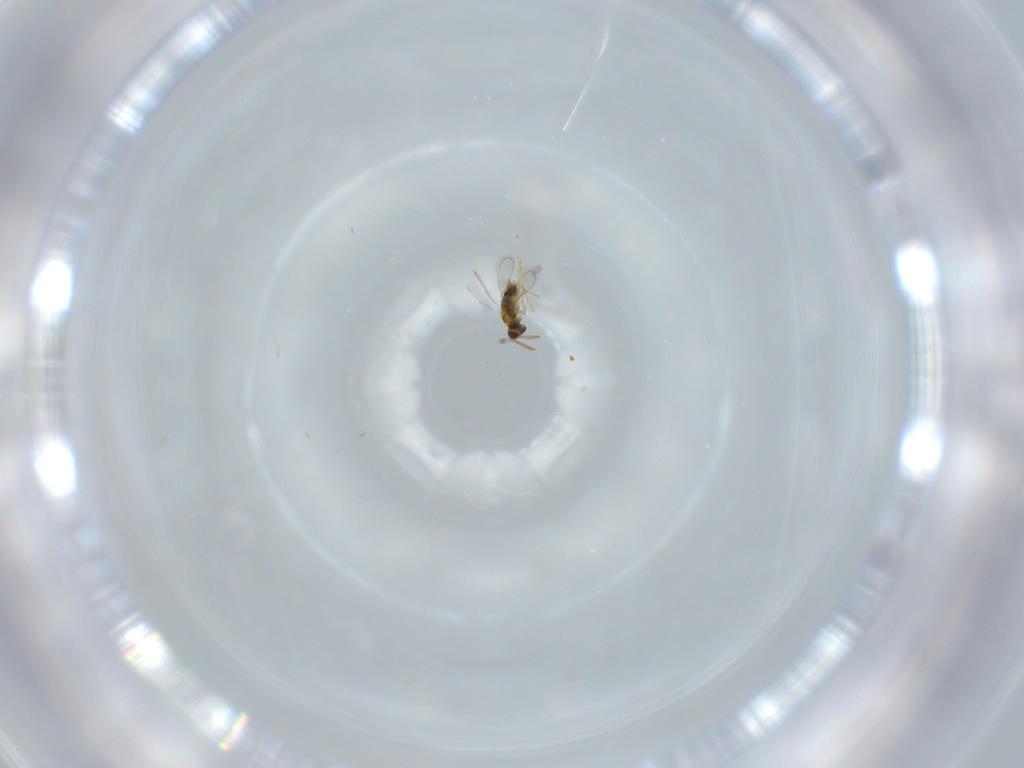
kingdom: Animalia
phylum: Arthropoda
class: Insecta
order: Hymenoptera
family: Aphelinidae
